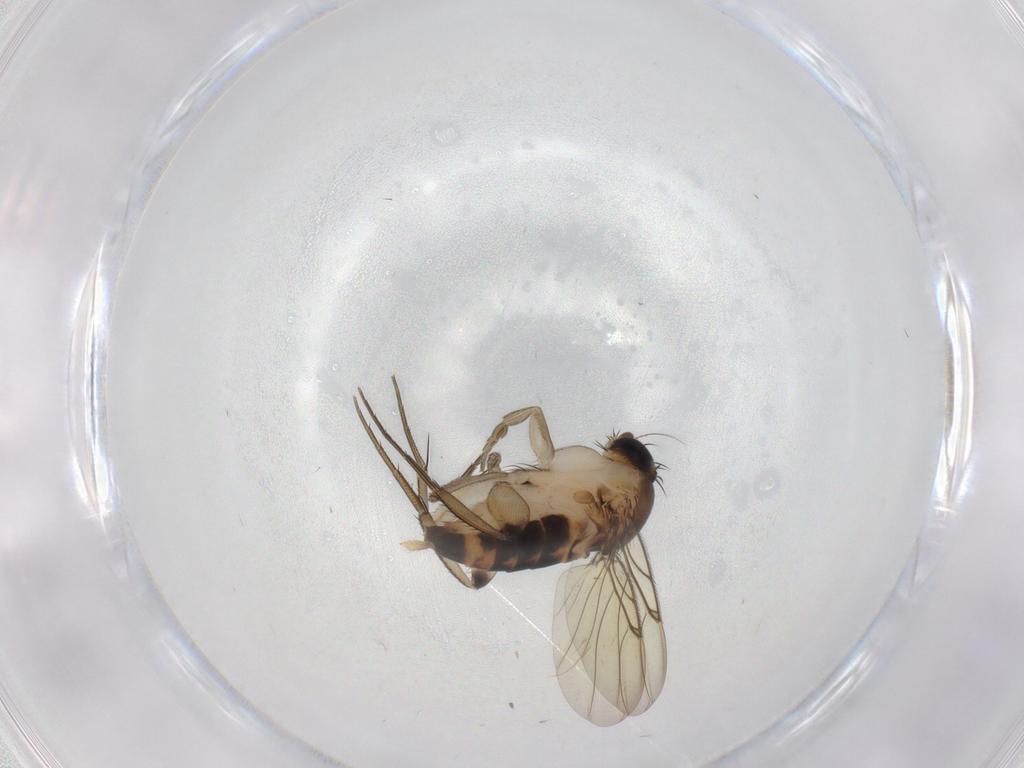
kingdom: Animalia
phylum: Arthropoda
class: Insecta
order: Diptera
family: Phoridae
